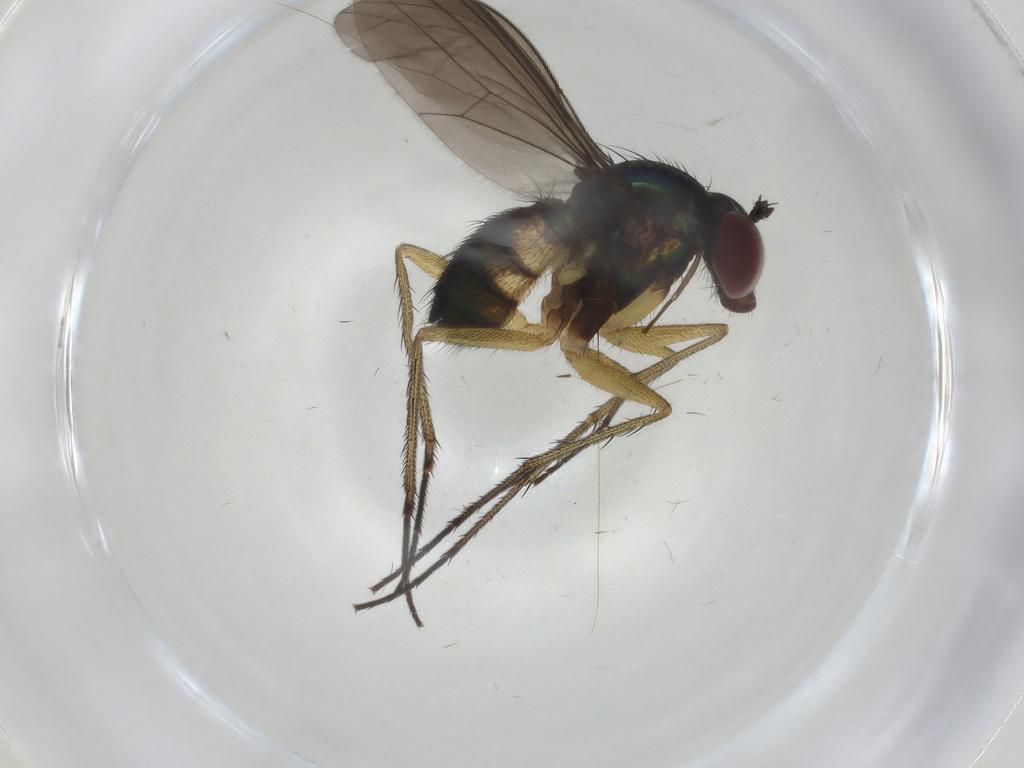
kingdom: Animalia
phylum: Arthropoda
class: Insecta
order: Diptera
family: Dolichopodidae
